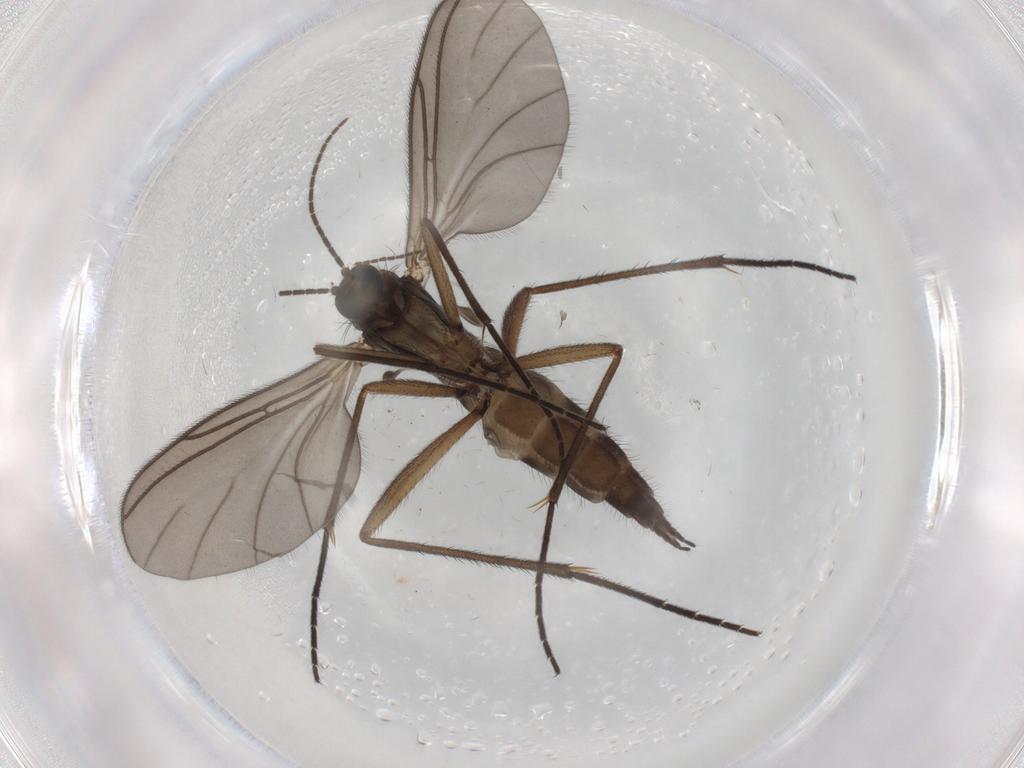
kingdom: Animalia
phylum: Arthropoda
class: Insecta
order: Diptera
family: Sciaridae
